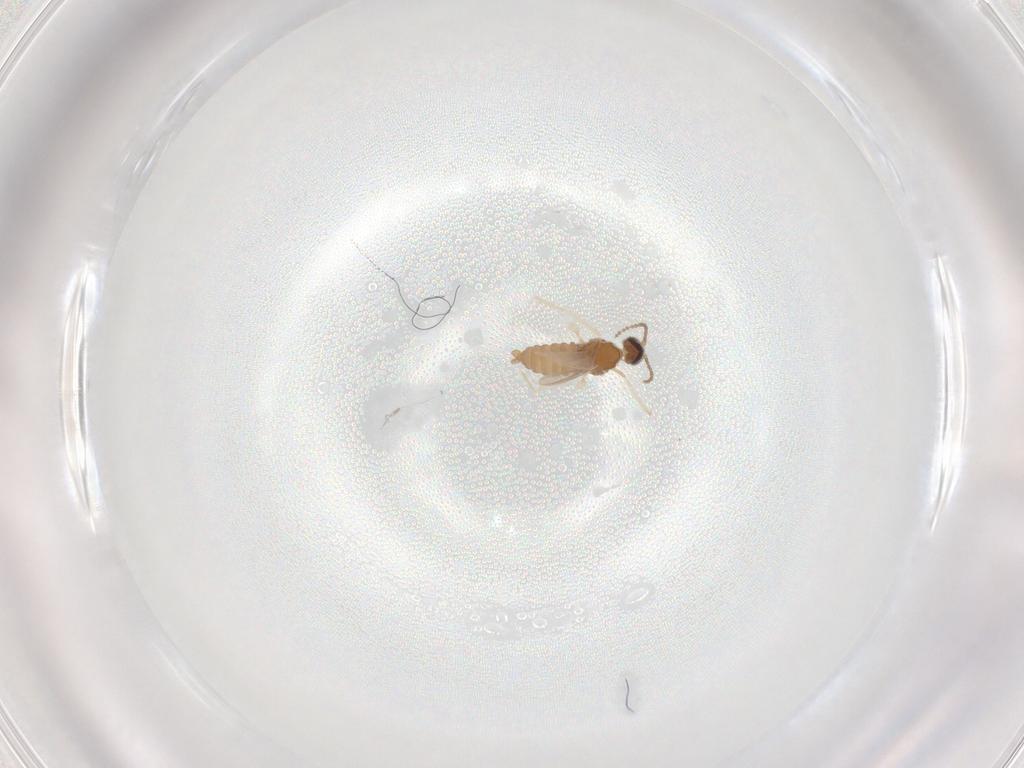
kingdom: Animalia
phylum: Arthropoda
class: Insecta
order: Diptera
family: Chironomidae
